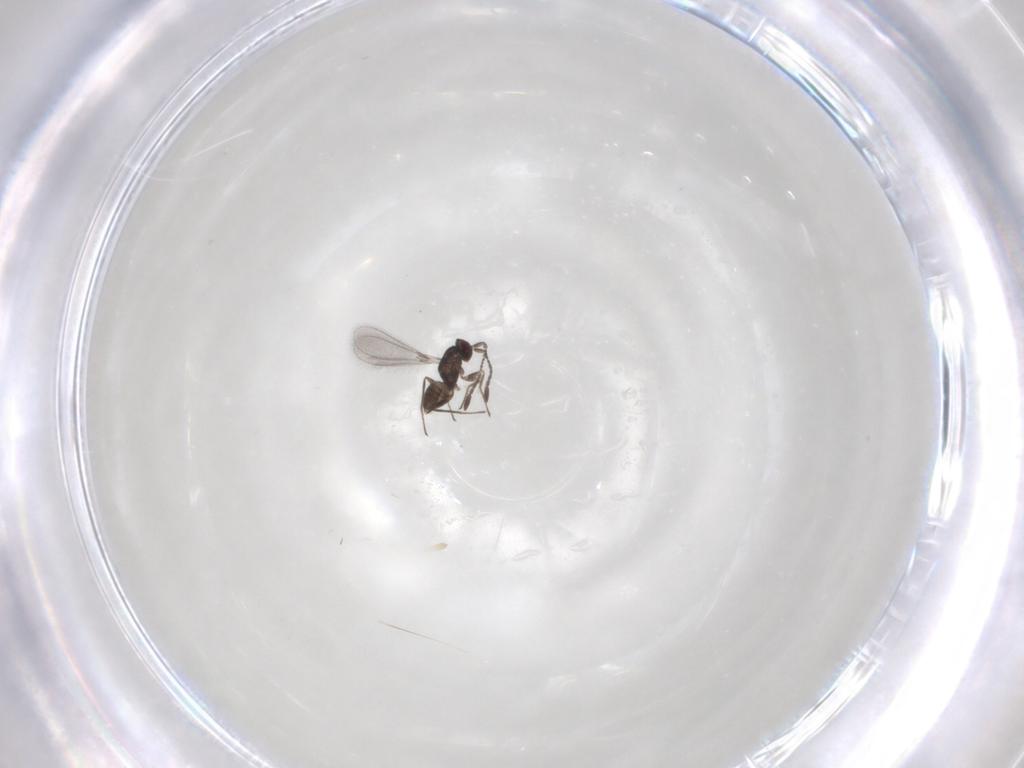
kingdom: Animalia
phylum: Arthropoda
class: Insecta
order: Hymenoptera
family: Mymaridae
